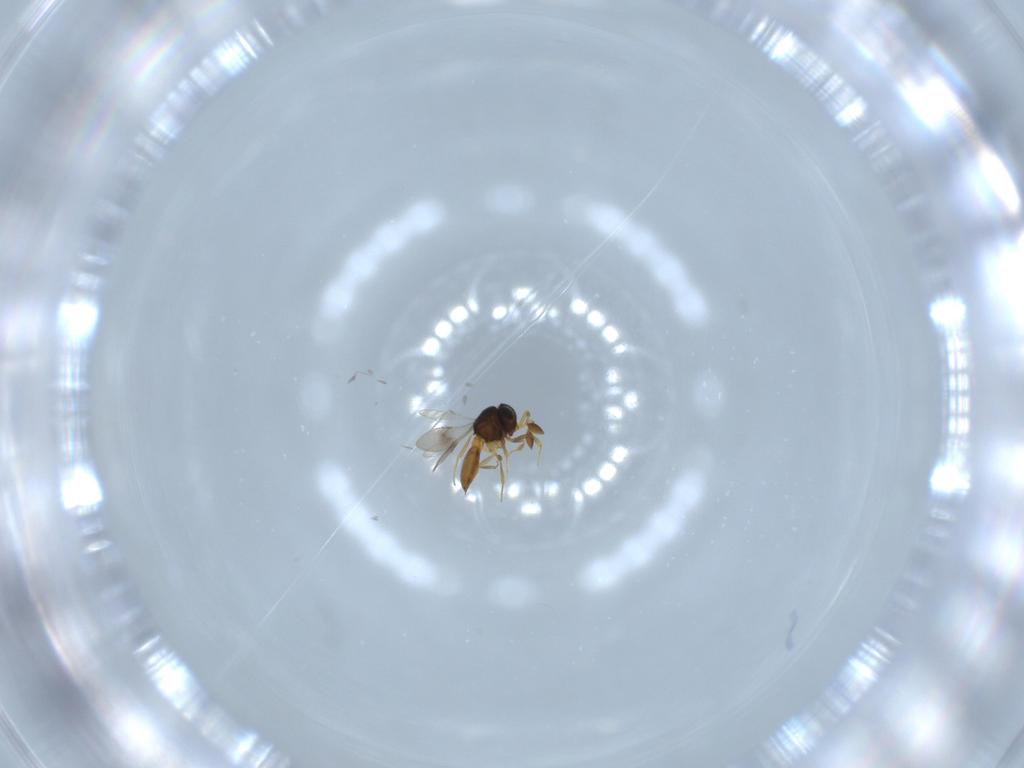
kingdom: Animalia
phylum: Arthropoda
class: Insecta
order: Hymenoptera
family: Scelionidae
